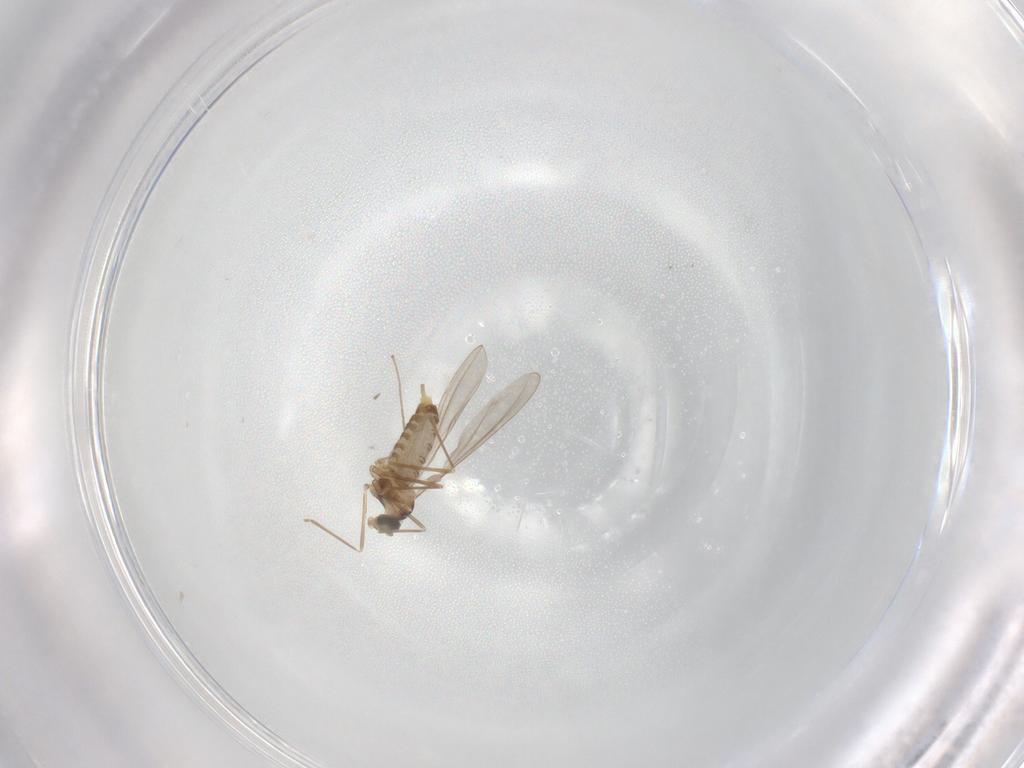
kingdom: Animalia
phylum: Arthropoda
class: Insecta
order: Diptera
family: Cecidomyiidae
